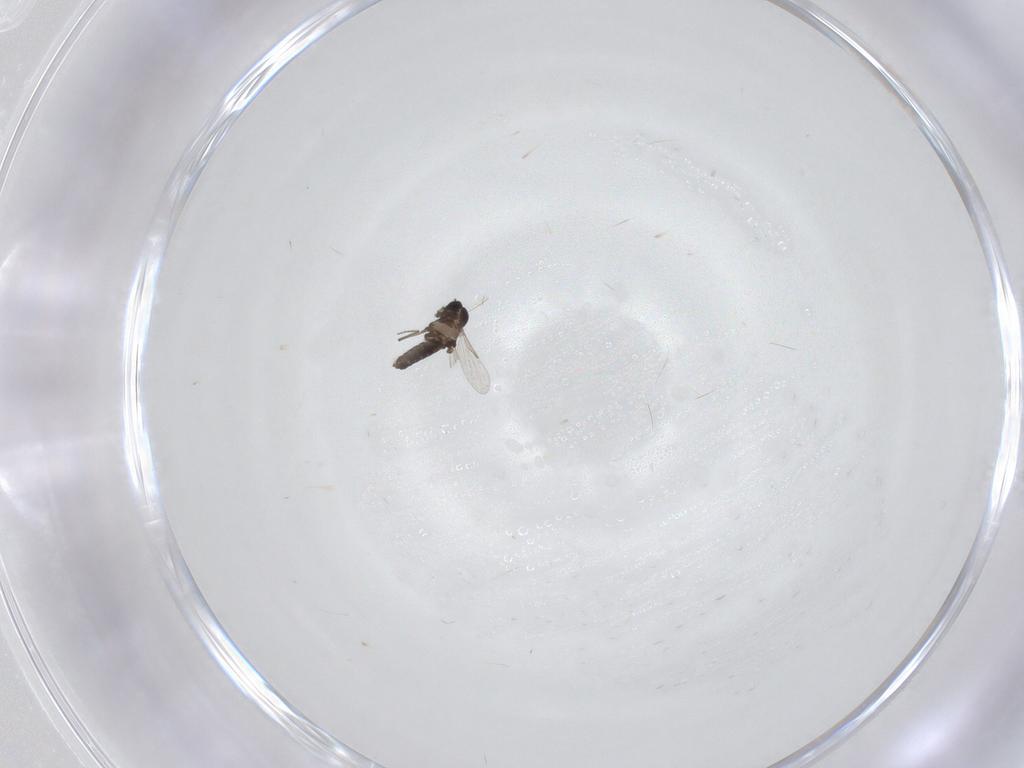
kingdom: Animalia
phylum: Arthropoda
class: Insecta
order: Diptera
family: Ceratopogonidae
